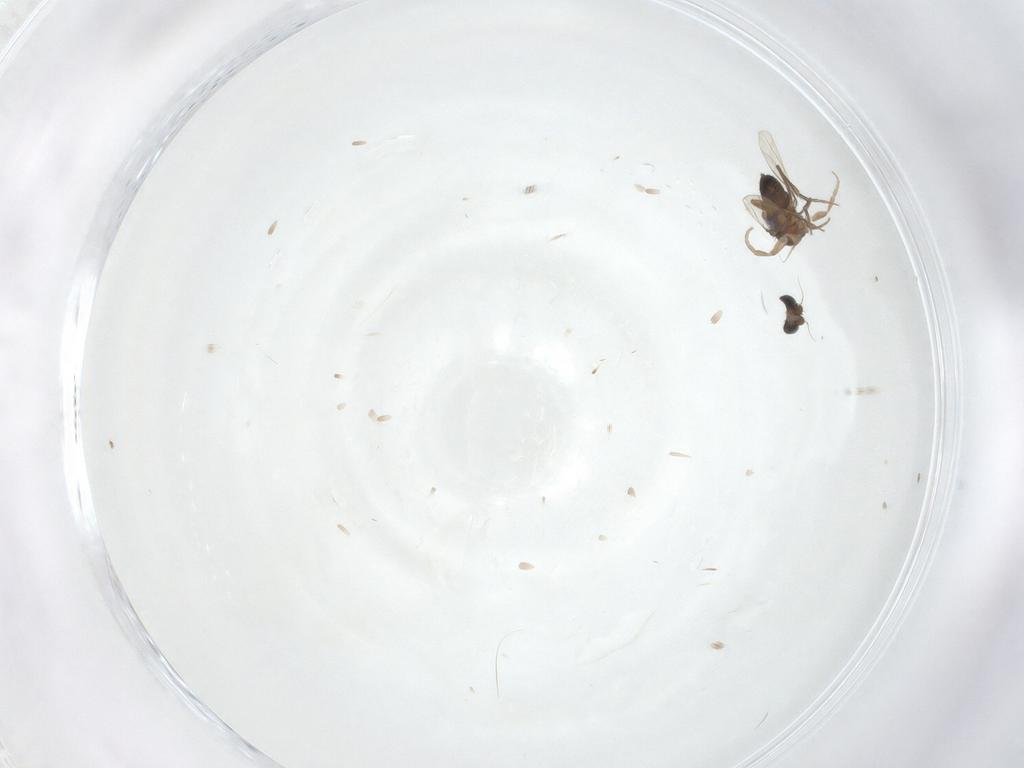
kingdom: Animalia
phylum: Arthropoda
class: Insecta
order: Diptera
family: Phoridae
